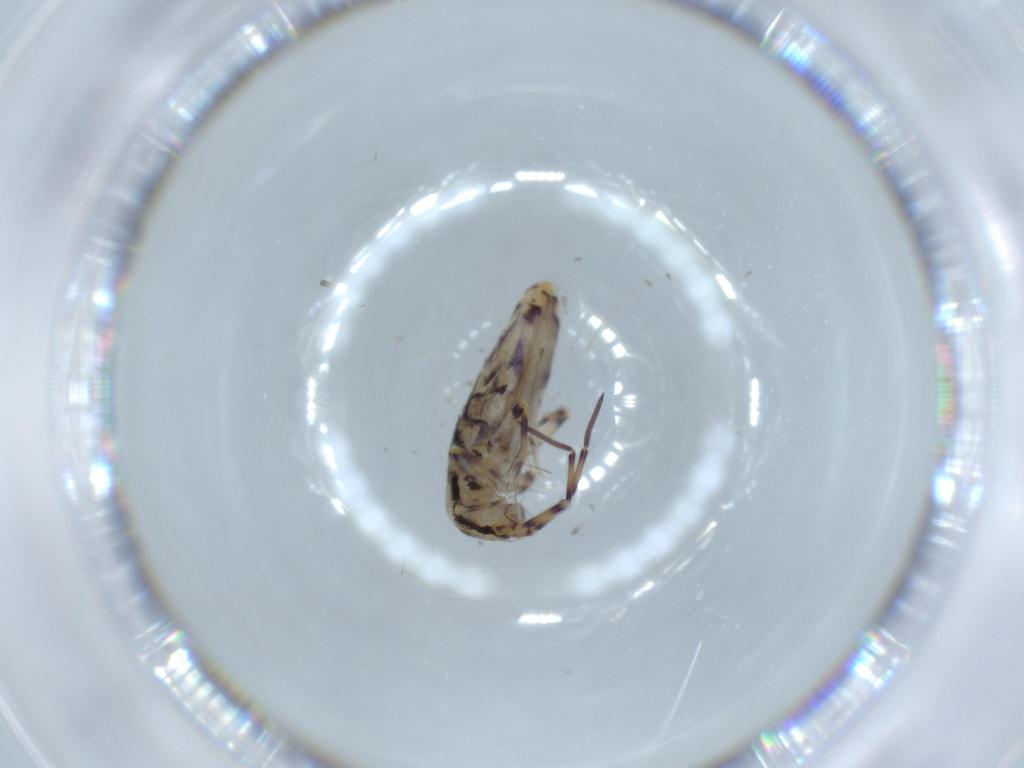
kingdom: Animalia
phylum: Arthropoda
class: Collembola
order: Entomobryomorpha
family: Entomobryidae
